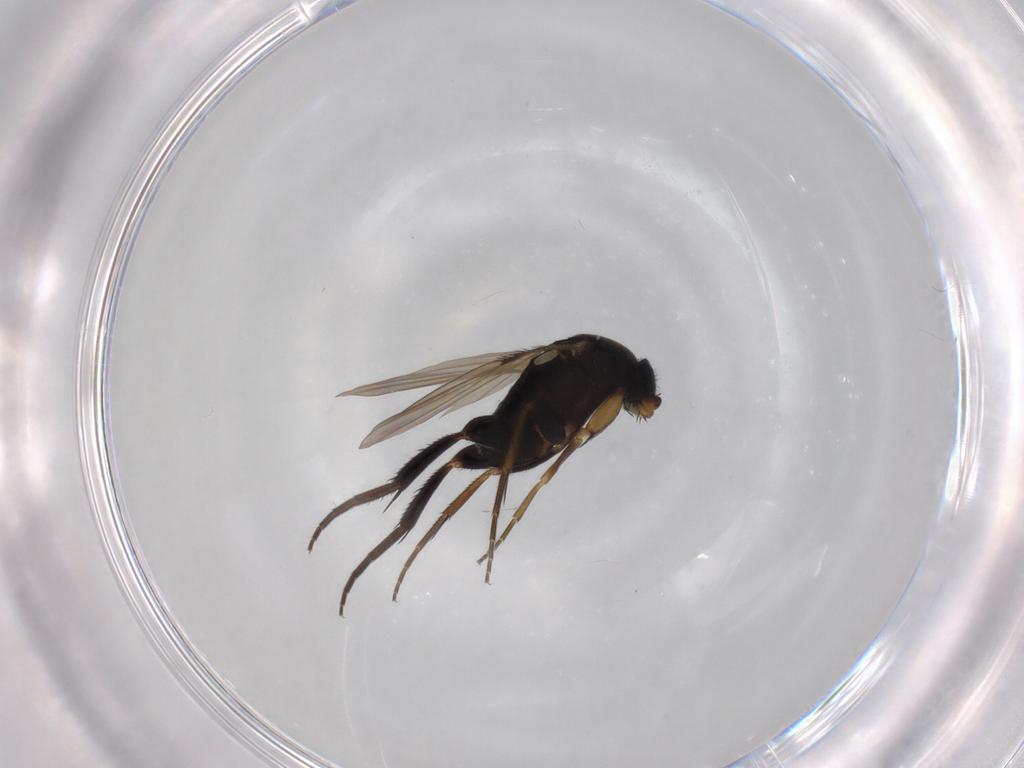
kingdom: Animalia
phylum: Arthropoda
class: Insecta
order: Diptera
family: Phoridae
